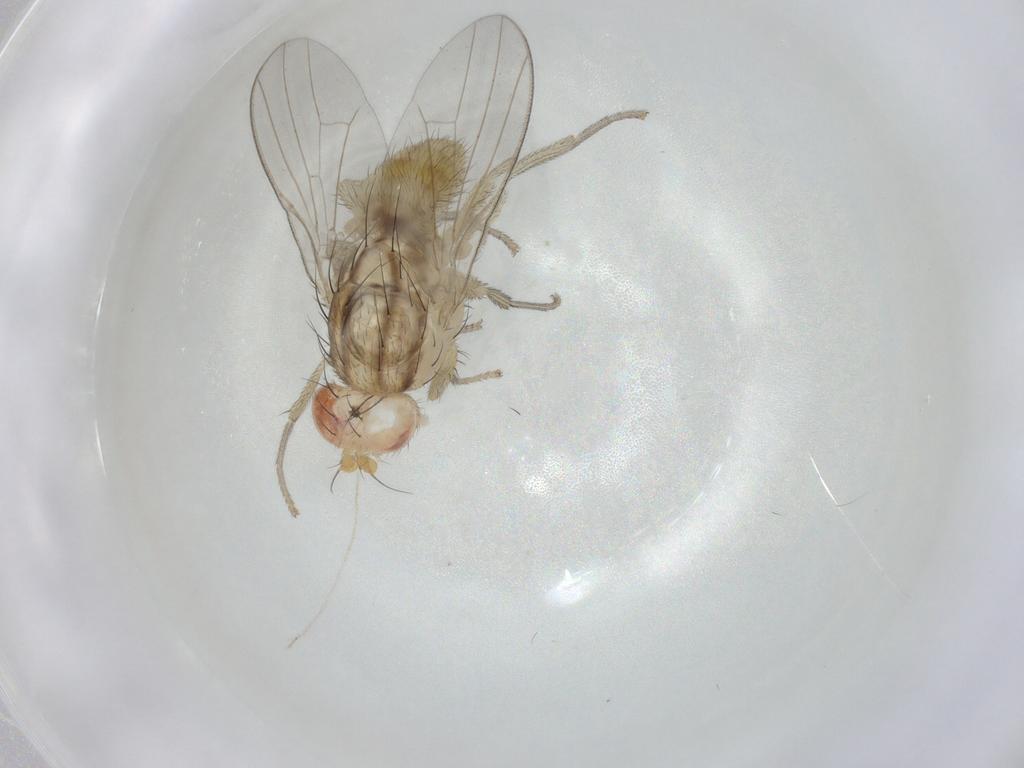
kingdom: Animalia
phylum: Arthropoda
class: Insecta
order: Diptera
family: Lauxaniidae
